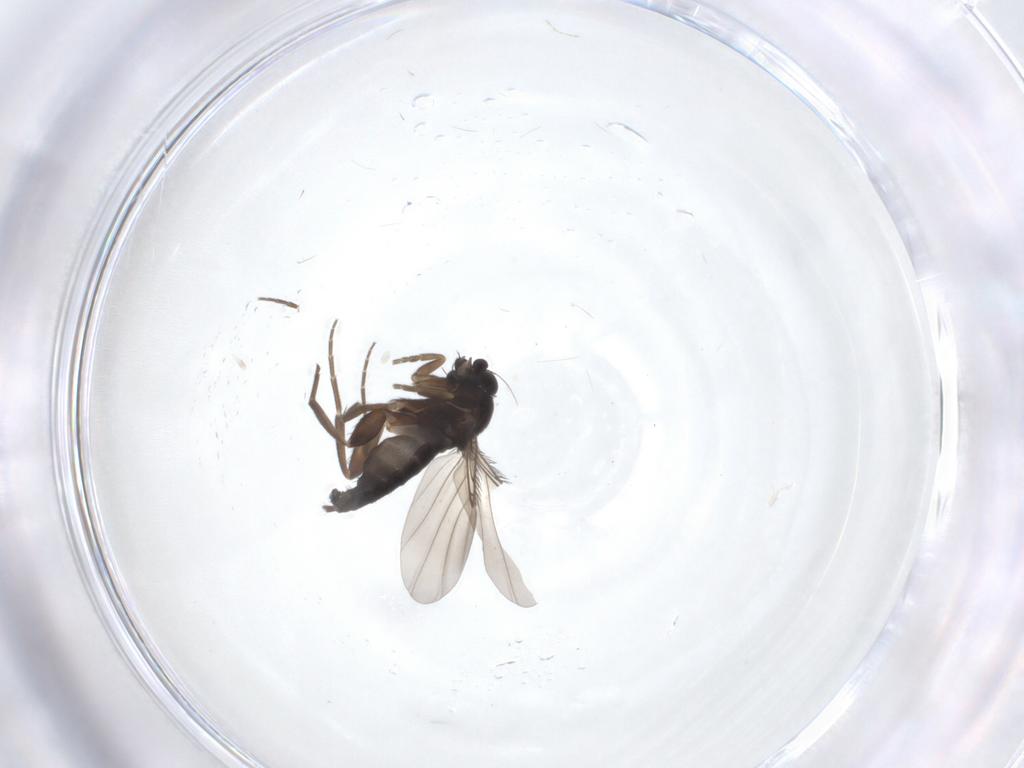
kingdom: Animalia
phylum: Arthropoda
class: Insecta
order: Diptera
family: Phoridae
